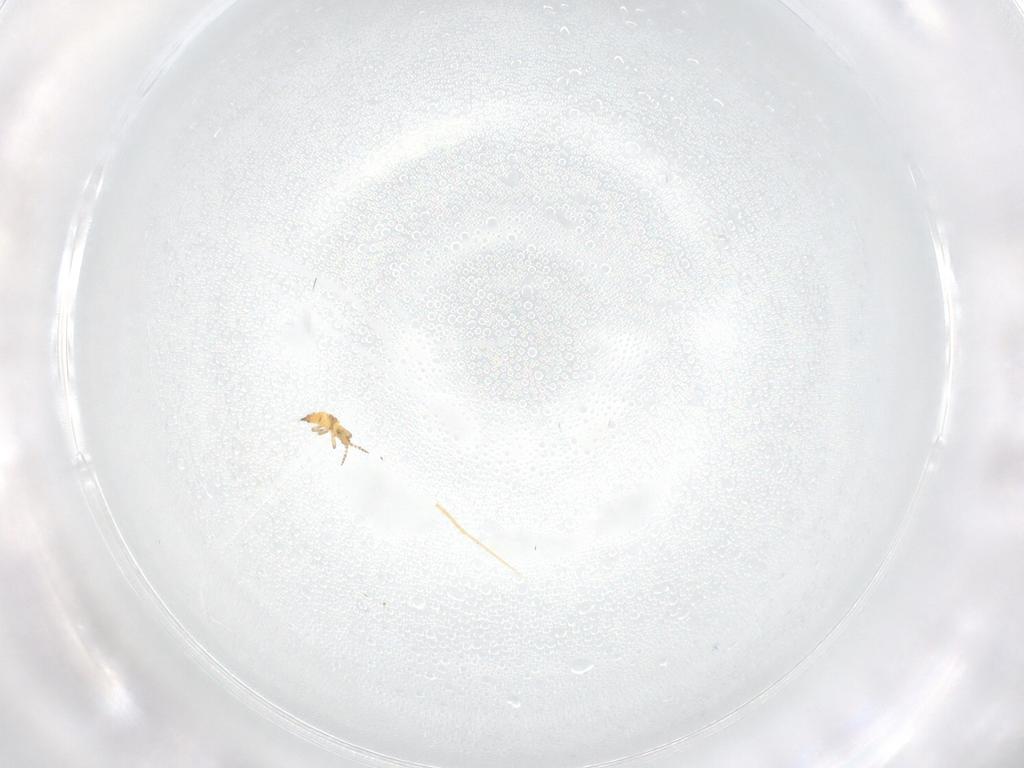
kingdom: Animalia
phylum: Arthropoda
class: Insecta
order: Thysanoptera
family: Phlaeothripidae
